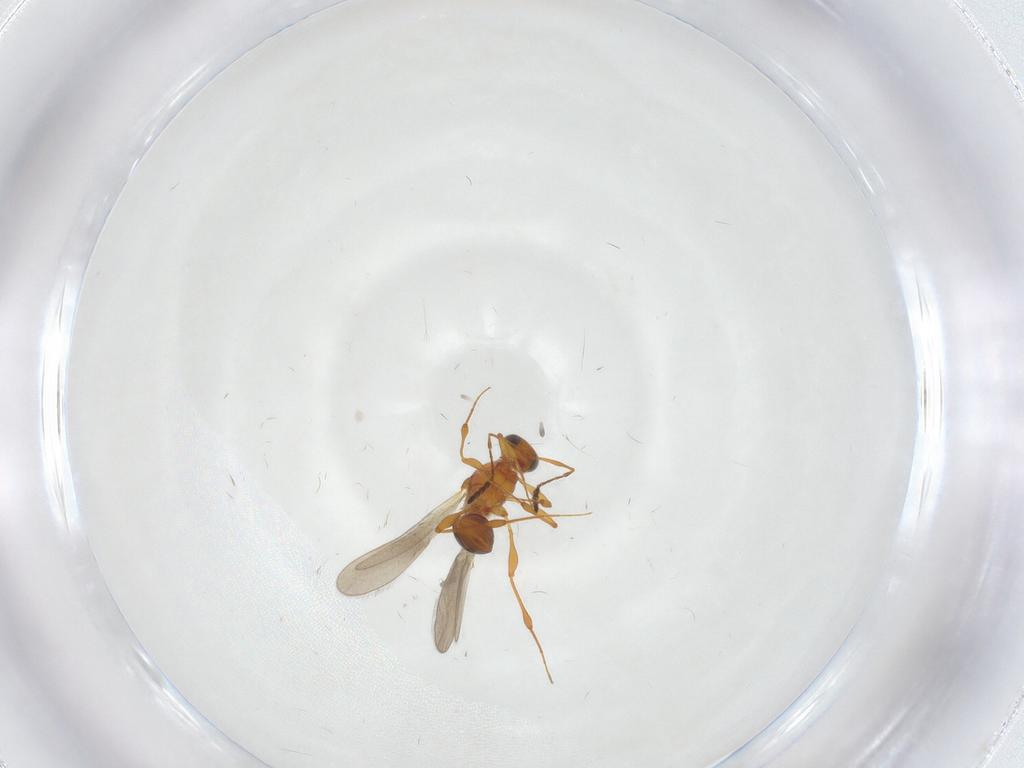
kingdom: Animalia
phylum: Arthropoda
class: Insecta
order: Hymenoptera
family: Platygastridae
